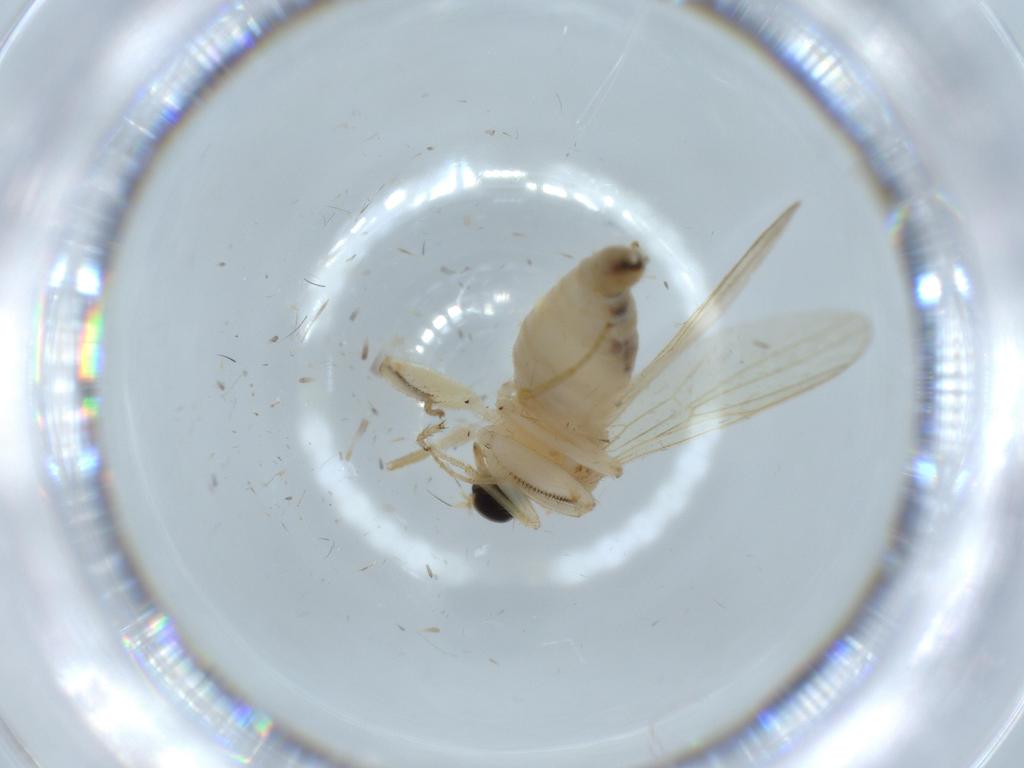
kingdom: Animalia
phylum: Arthropoda
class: Insecta
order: Diptera
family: Hybotidae
